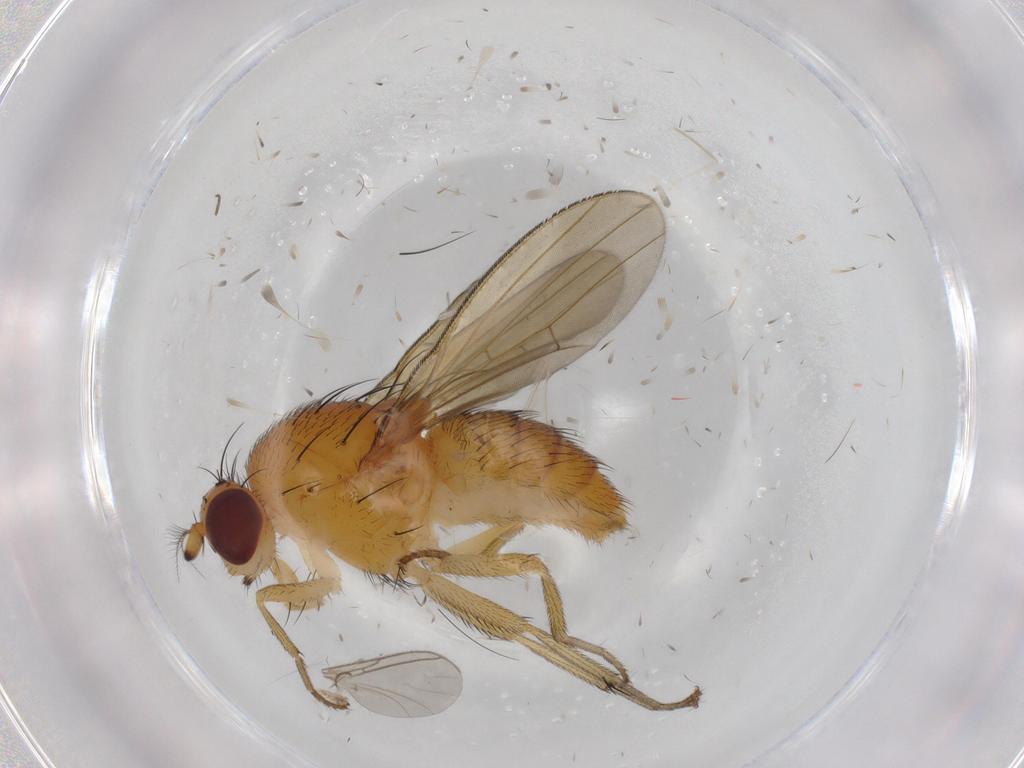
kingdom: Animalia
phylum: Arthropoda
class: Insecta
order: Diptera
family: Lauxaniidae
